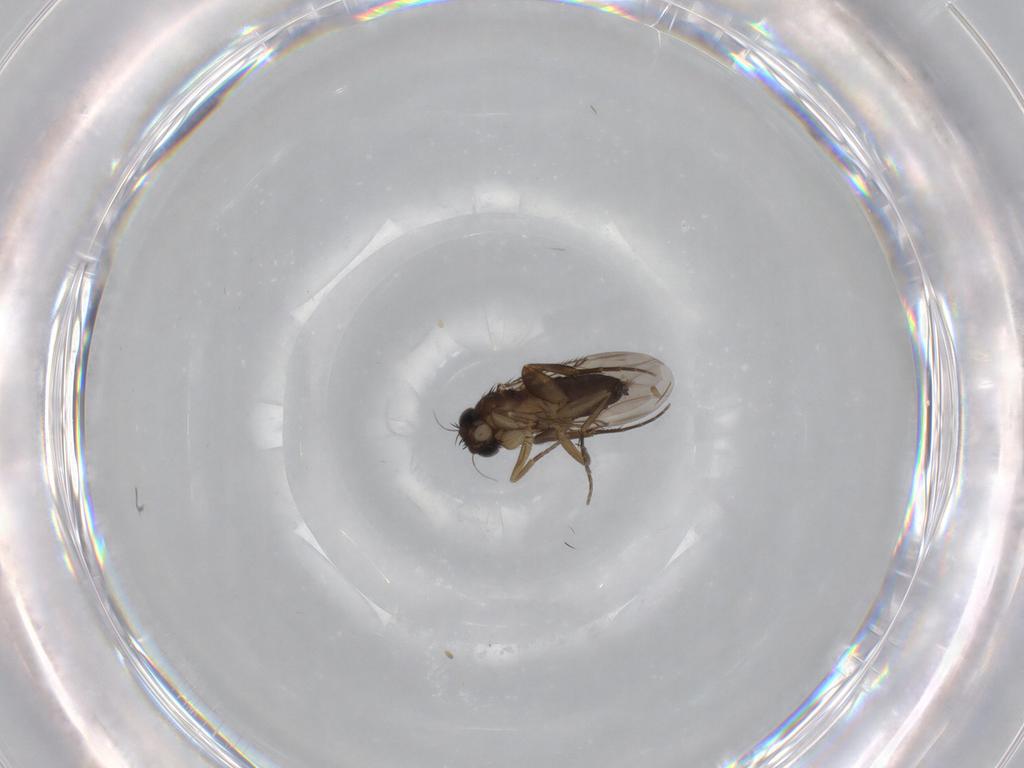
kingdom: Animalia
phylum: Arthropoda
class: Insecta
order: Diptera
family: Phoridae
